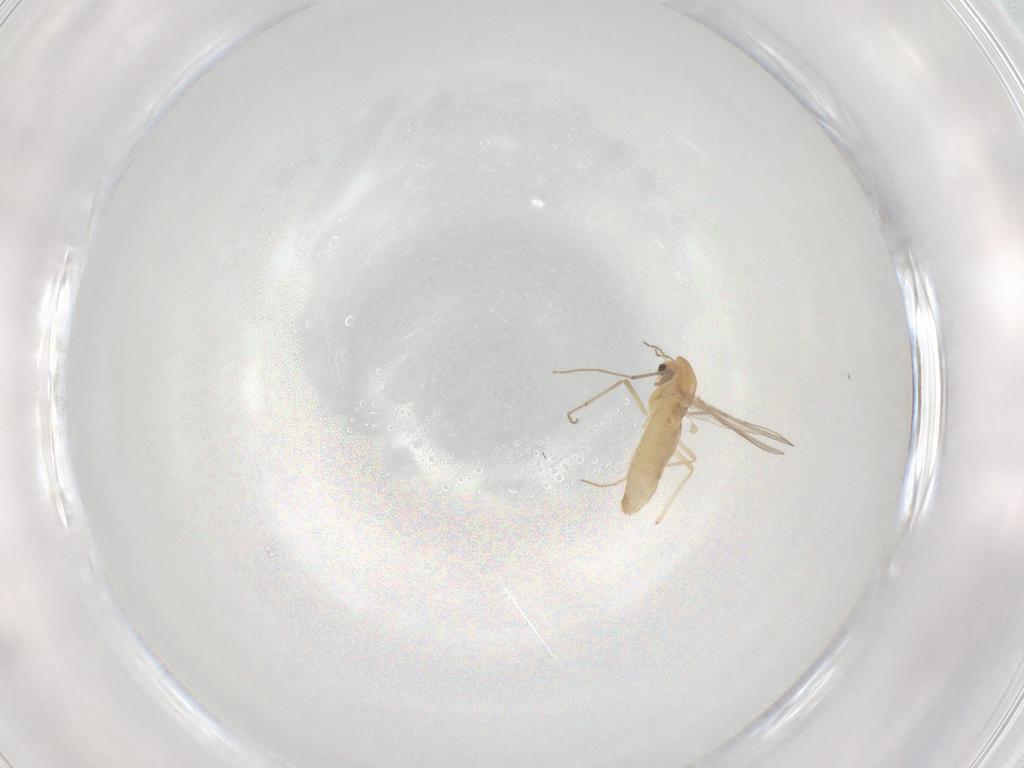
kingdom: Animalia
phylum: Arthropoda
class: Insecta
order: Diptera
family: Chironomidae
